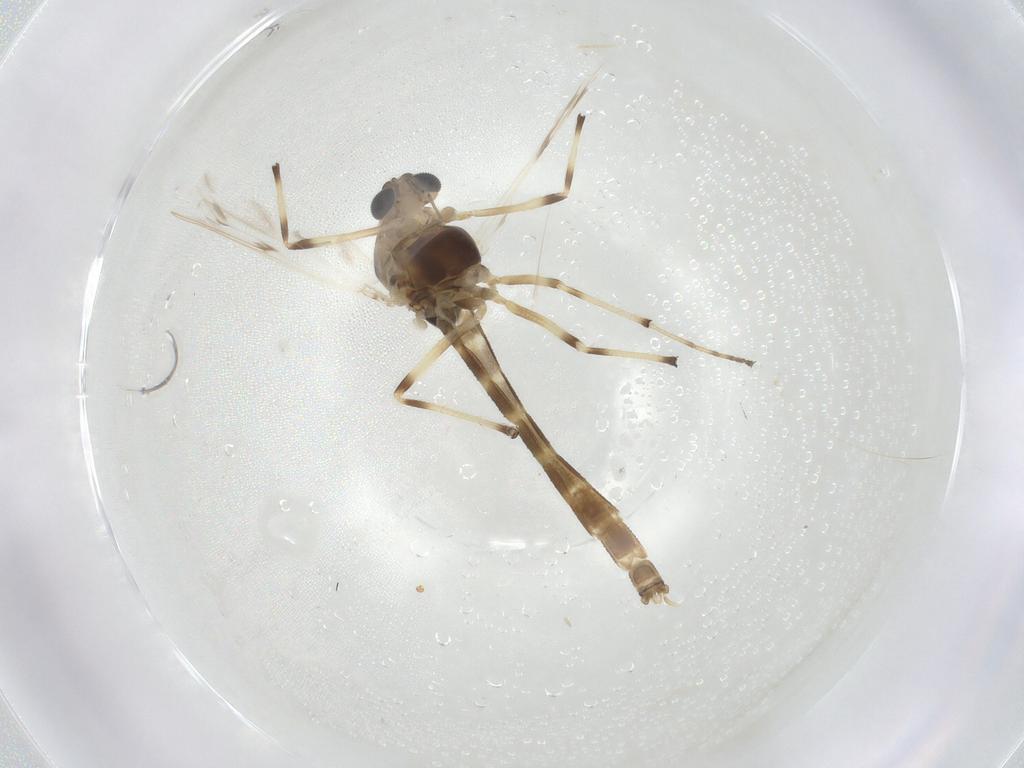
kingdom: Animalia
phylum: Arthropoda
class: Insecta
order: Diptera
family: Chironomidae
